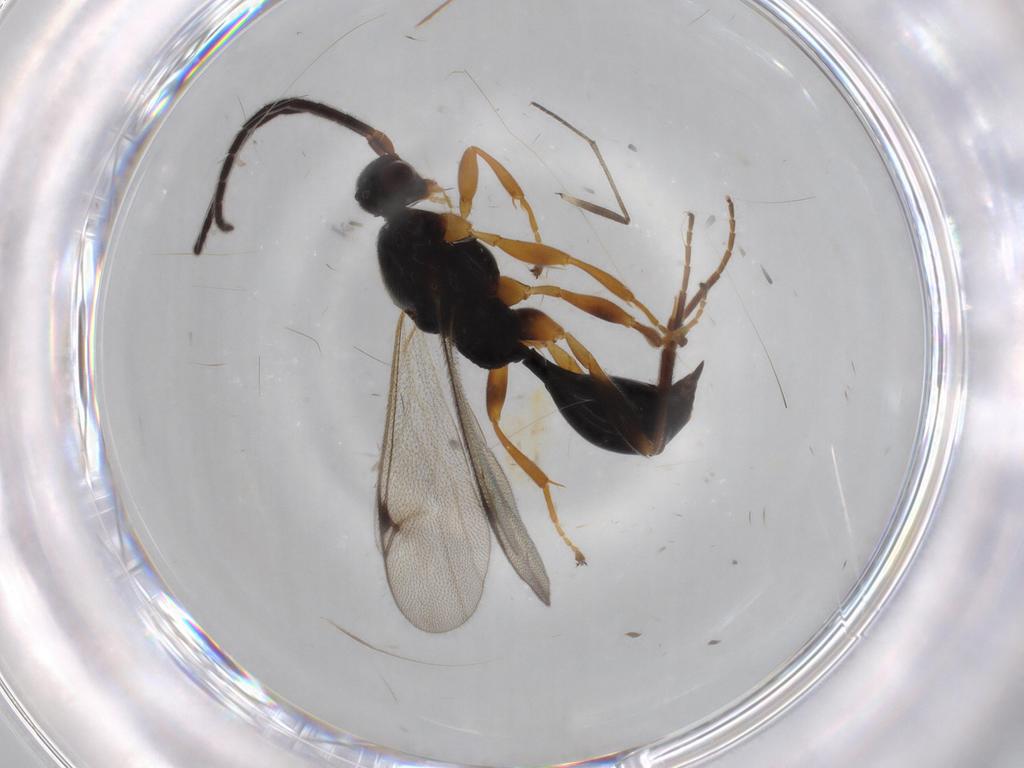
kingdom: Animalia
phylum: Arthropoda
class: Insecta
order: Hymenoptera
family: Proctotrupidae
